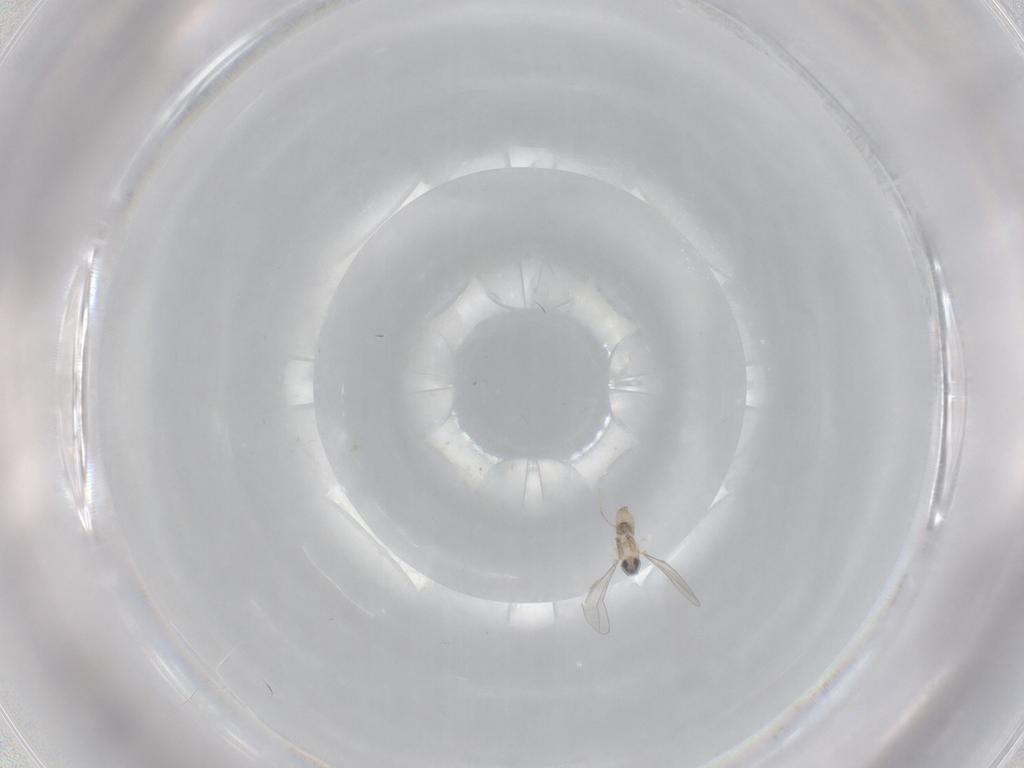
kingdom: Animalia
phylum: Arthropoda
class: Insecta
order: Diptera
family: Cecidomyiidae
